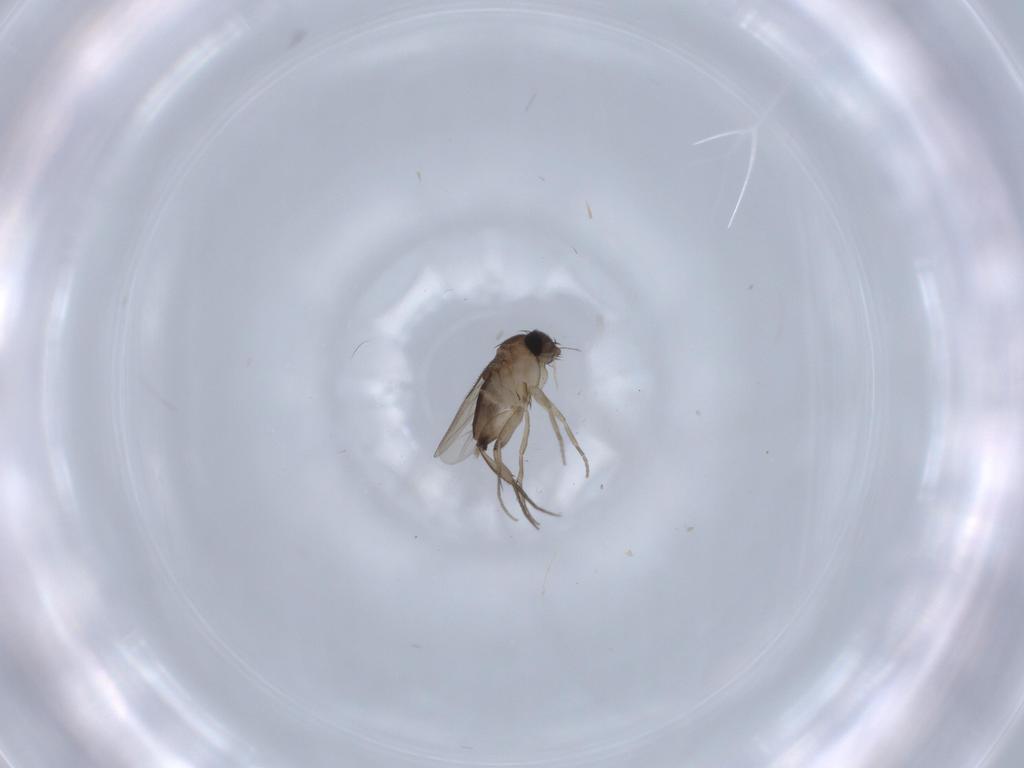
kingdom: Animalia
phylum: Arthropoda
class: Insecta
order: Diptera
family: Phoridae
